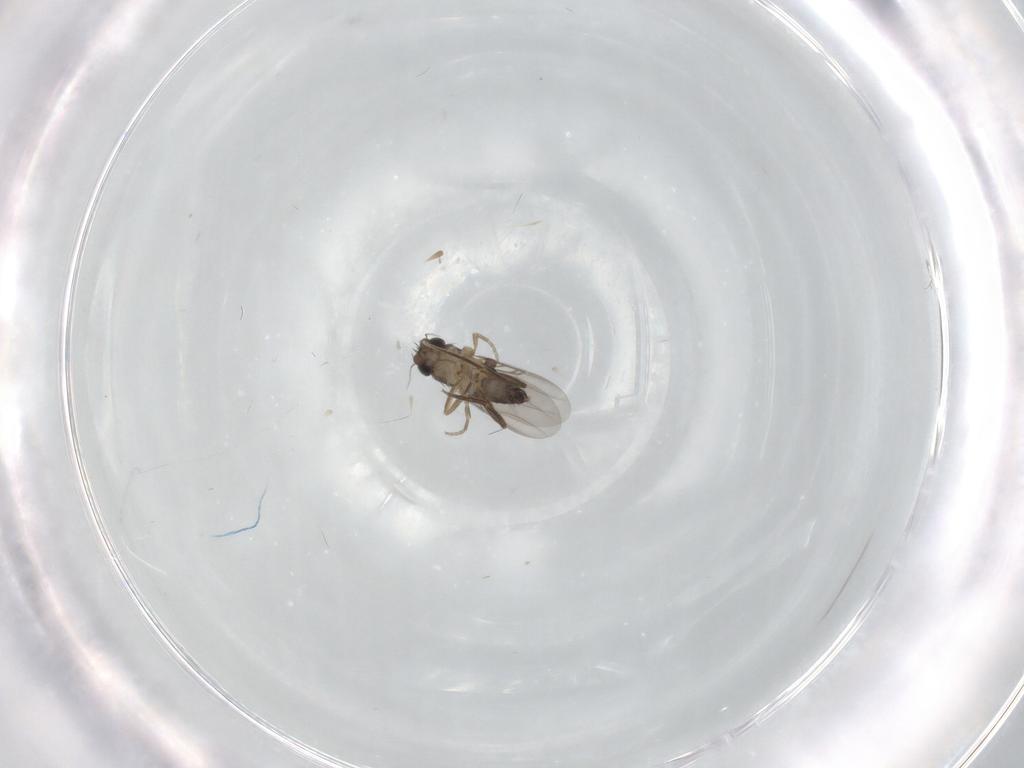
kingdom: Animalia
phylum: Arthropoda
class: Insecta
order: Diptera
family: Phoridae
